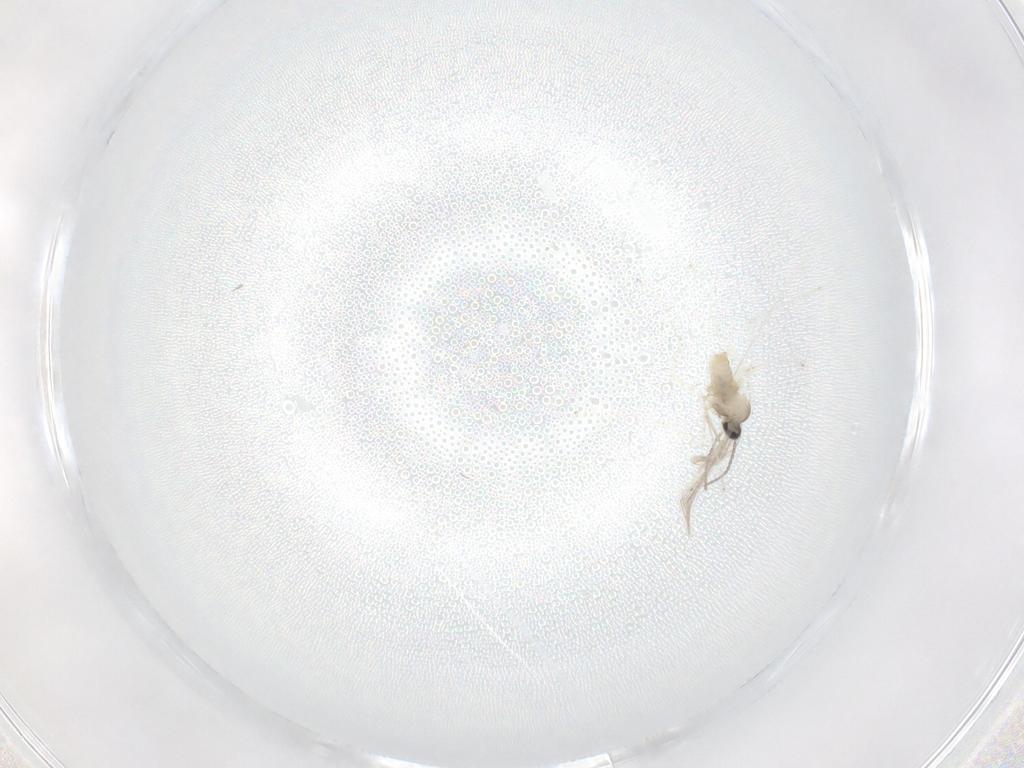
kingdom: Animalia
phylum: Arthropoda
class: Insecta
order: Diptera
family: Cecidomyiidae
